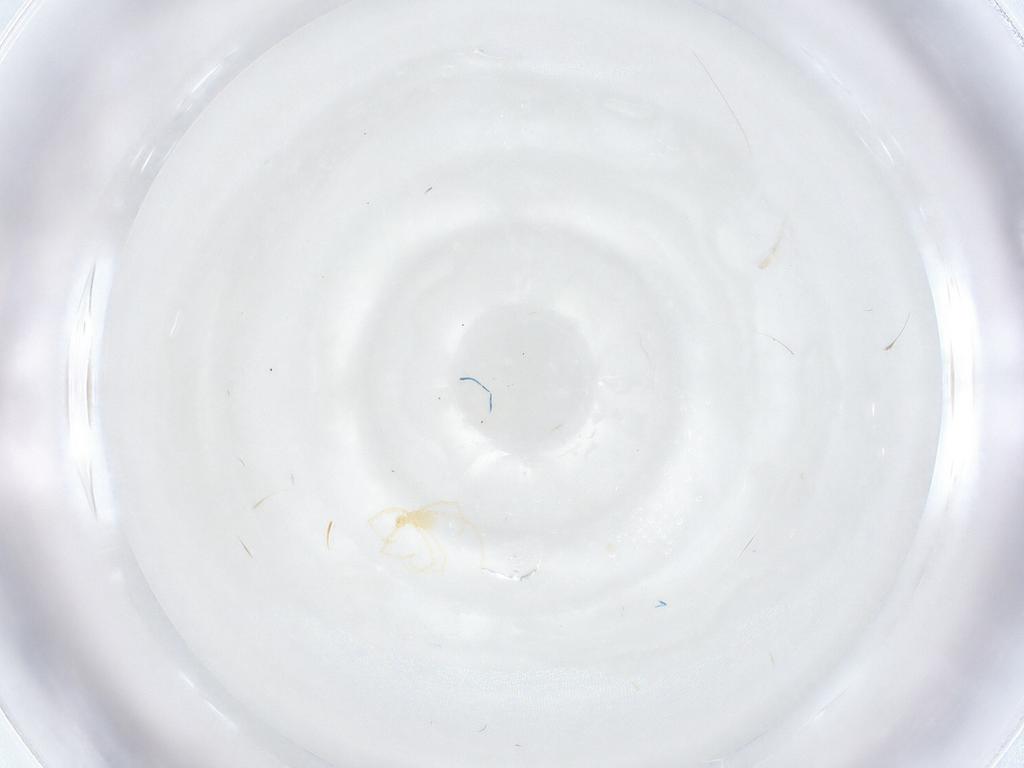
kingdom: Animalia
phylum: Arthropoda
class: Arachnida
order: Trombidiformes
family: Erythraeidae
